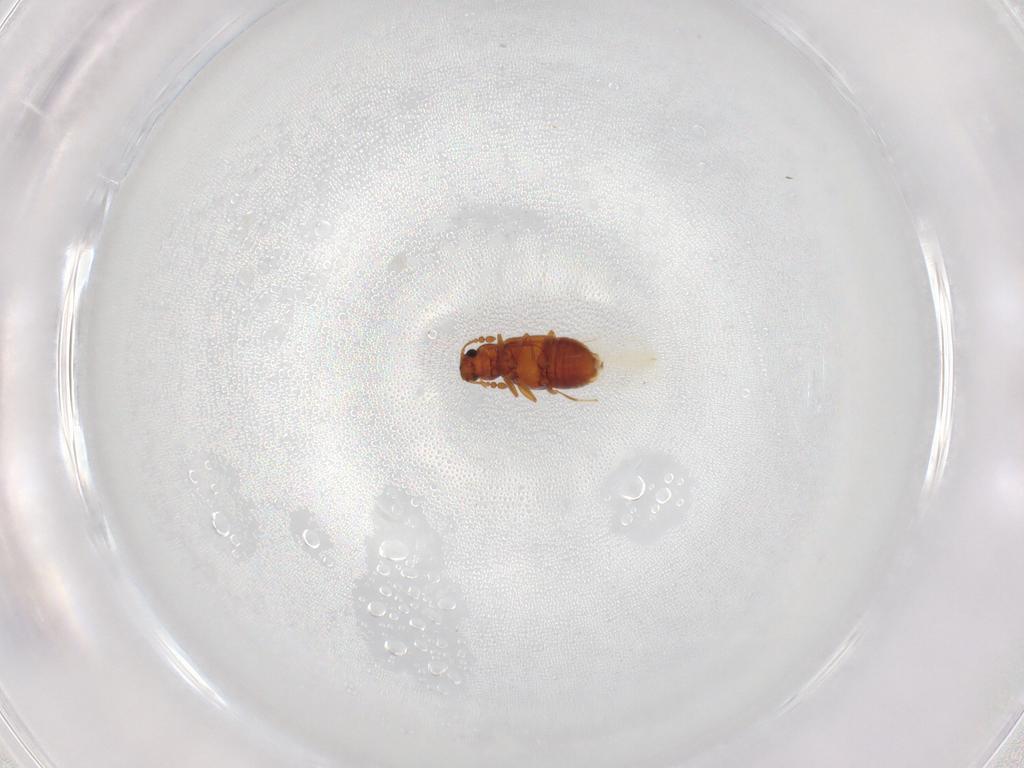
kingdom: Animalia
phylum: Arthropoda
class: Insecta
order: Coleoptera
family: Staphylinidae
